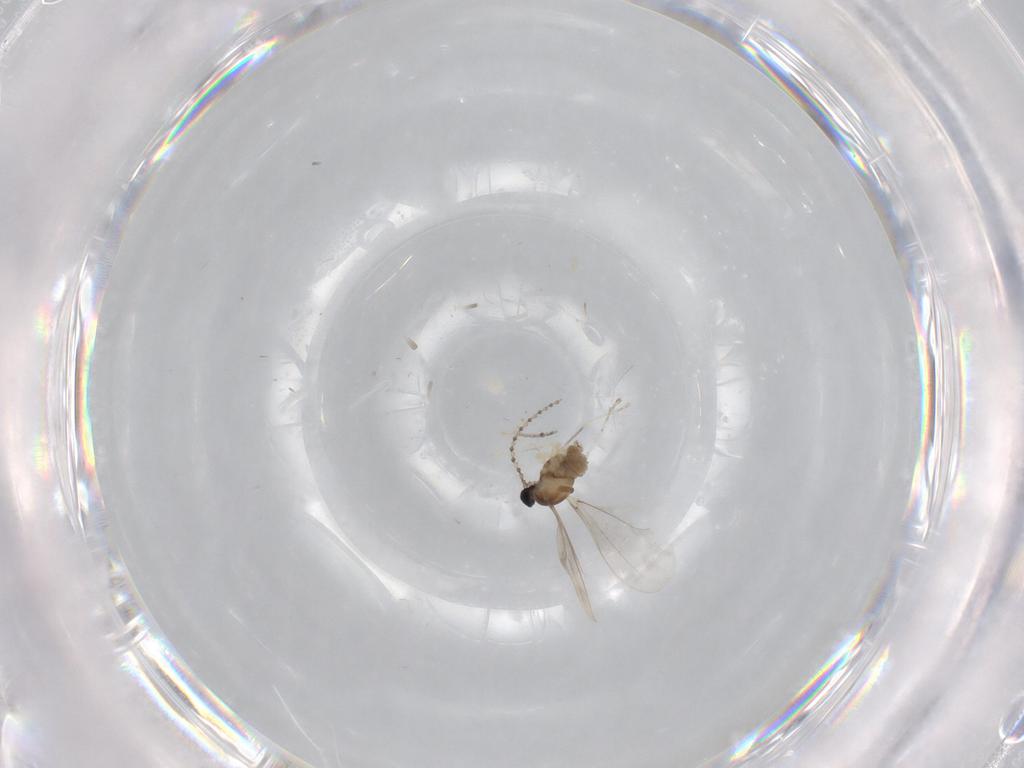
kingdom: Animalia
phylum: Arthropoda
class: Insecta
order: Diptera
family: Cecidomyiidae
